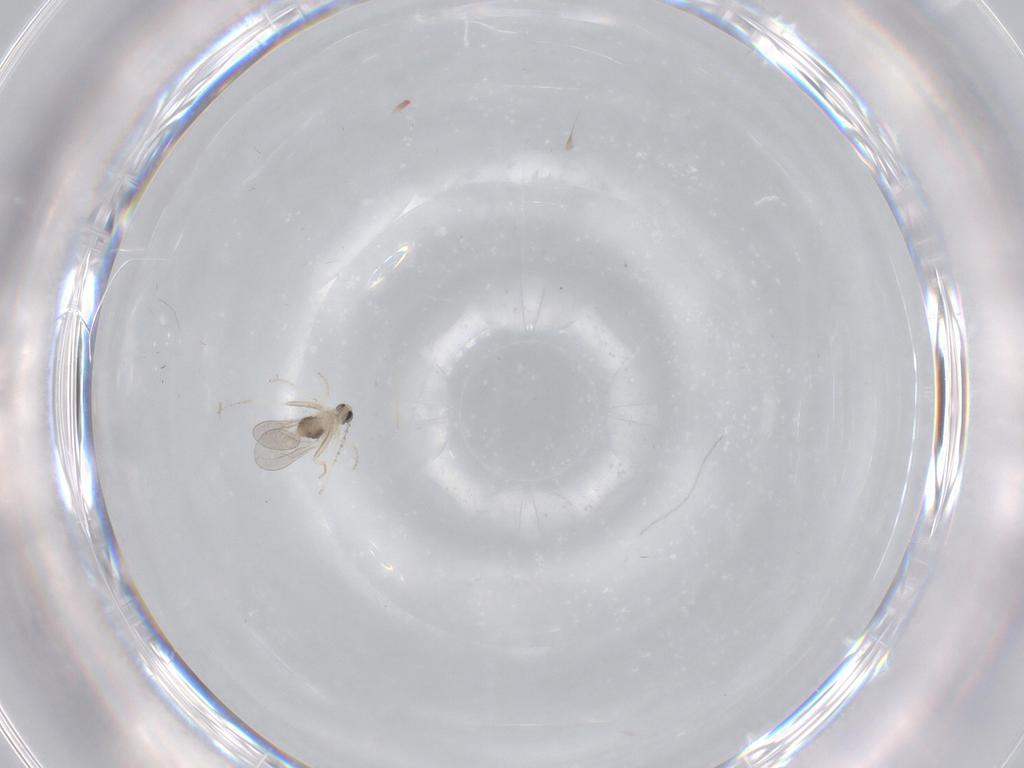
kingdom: Animalia
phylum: Arthropoda
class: Insecta
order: Diptera
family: Cecidomyiidae
